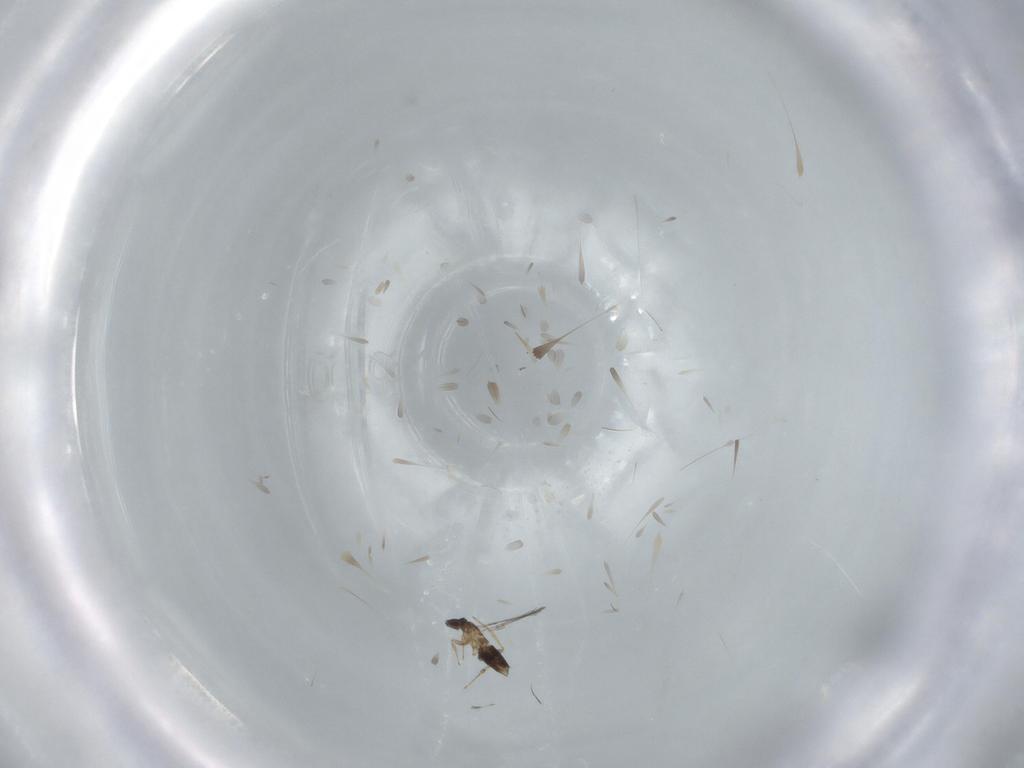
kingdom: Animalia
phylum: Arthropoda
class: Insecta
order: Hymenoptera
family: Mymaridae
